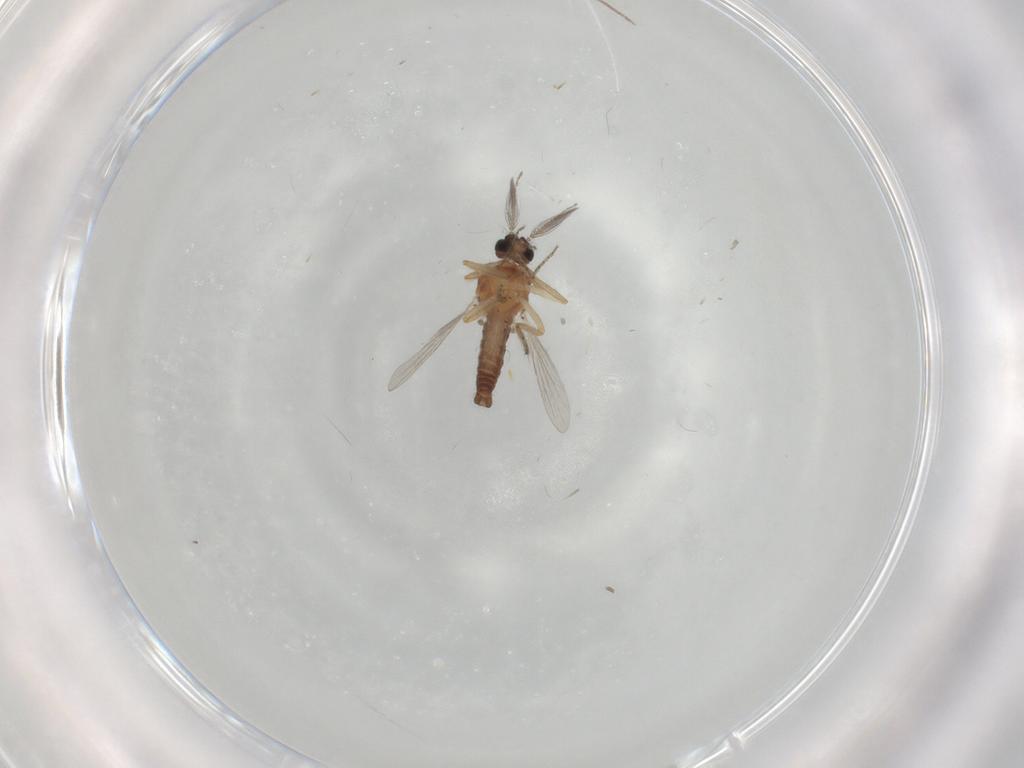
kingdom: Animalia
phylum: Arthropoda
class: Insecta
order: Diptera
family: Ceratopogonidae
